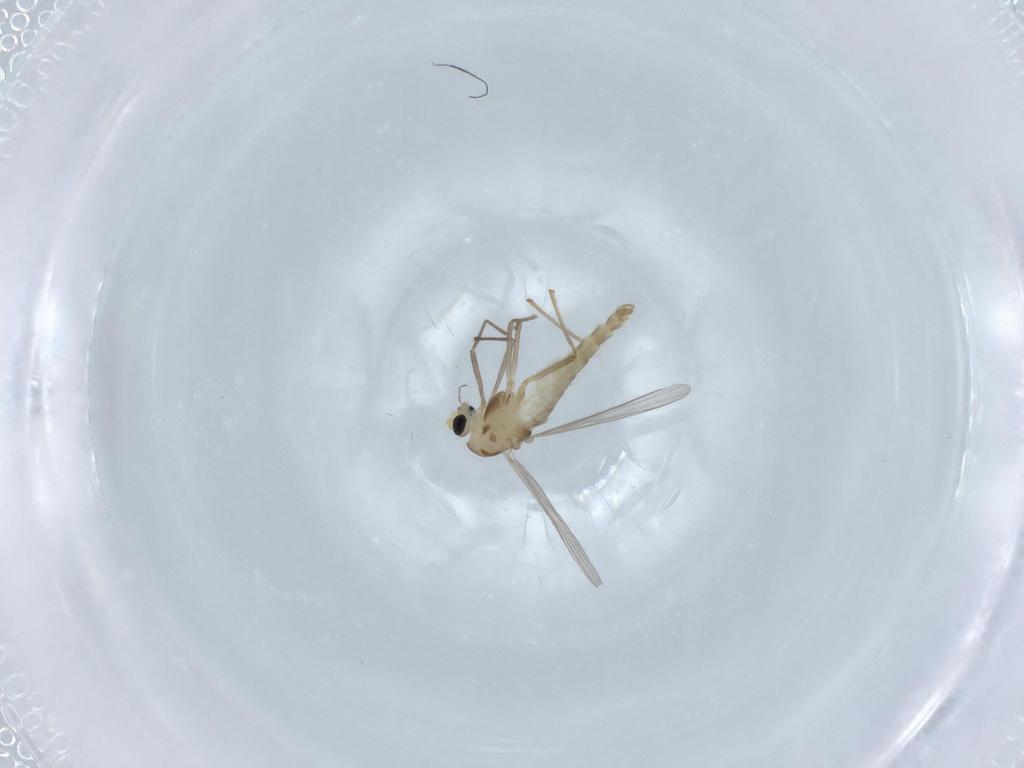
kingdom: Animalia
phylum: Arthropoda
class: Insecta
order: Diptera
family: Chironomidae
